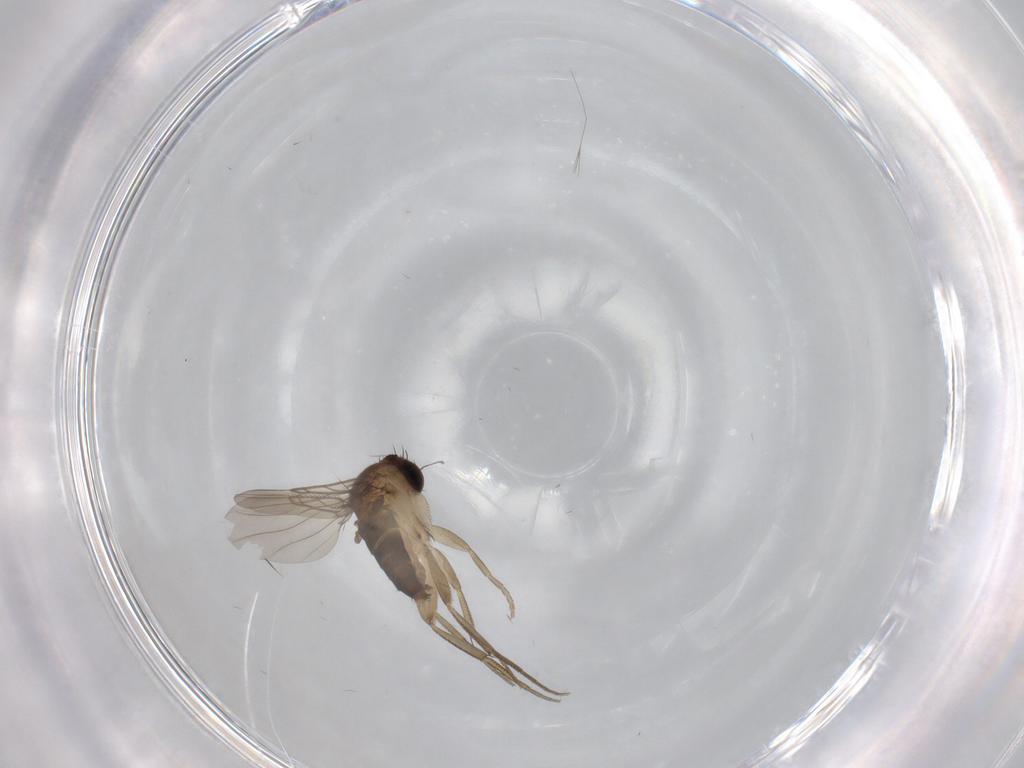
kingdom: Animalia
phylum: Arthropoda
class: Insecta
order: Diptera
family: Phoridae
